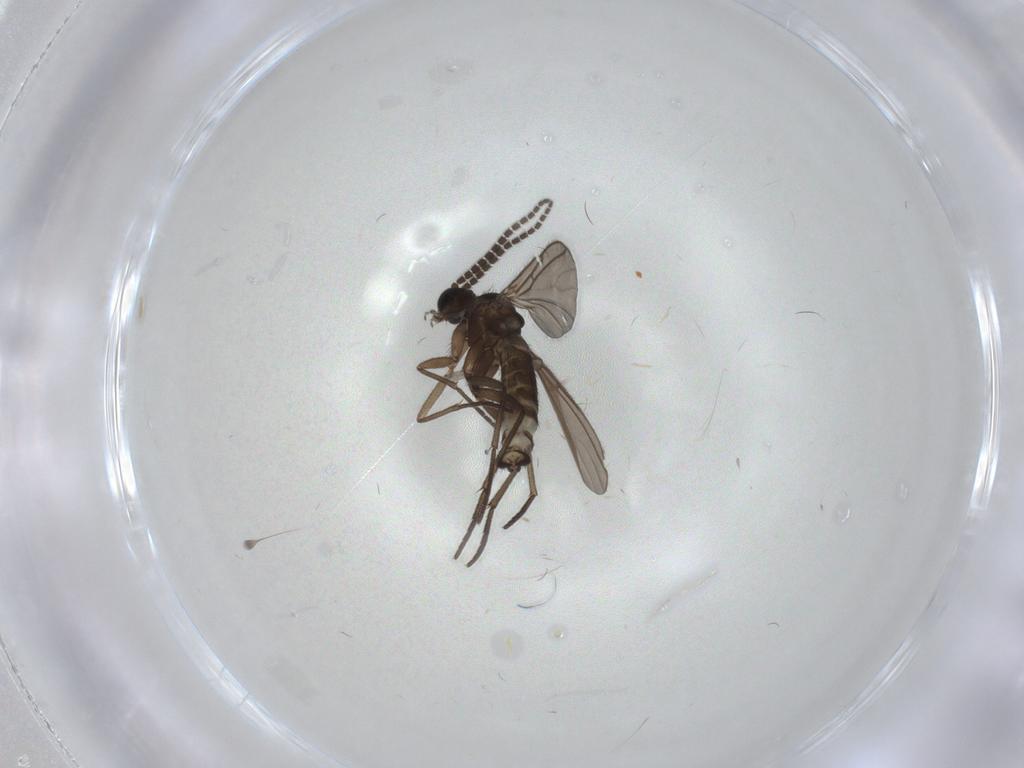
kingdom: Animalia
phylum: Arthropoda
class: Insecta
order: Diptera
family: Sciaridae
